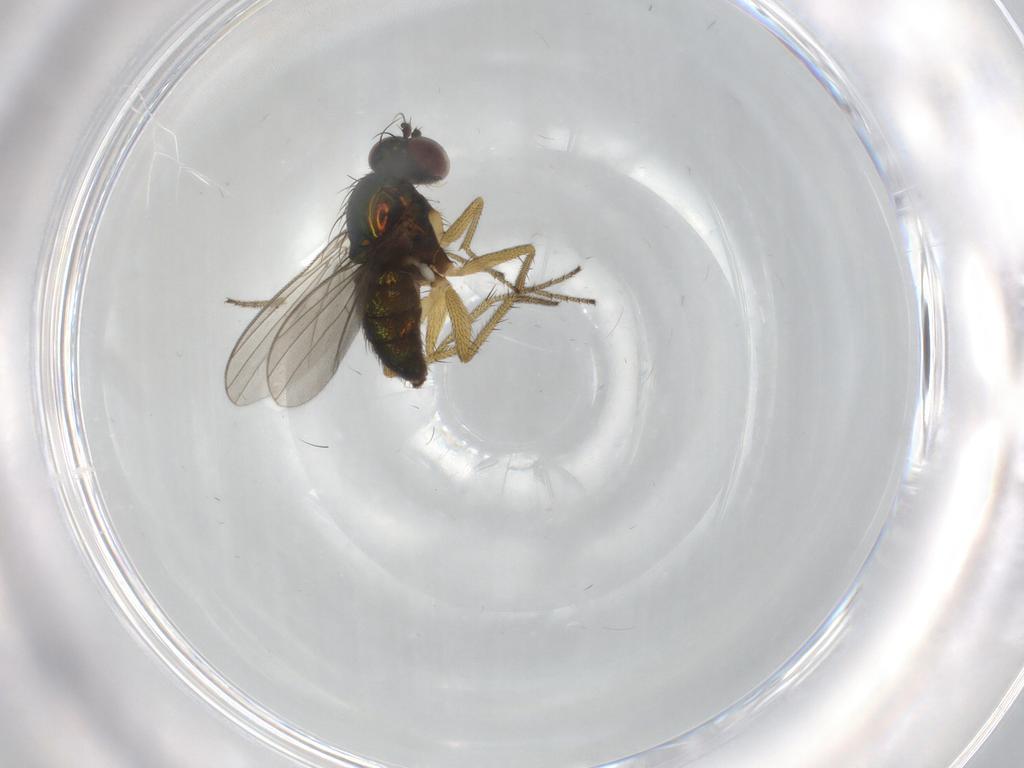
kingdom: Animalia
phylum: Arthropoda
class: Insecta
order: Diptera
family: Dolichopodidae
